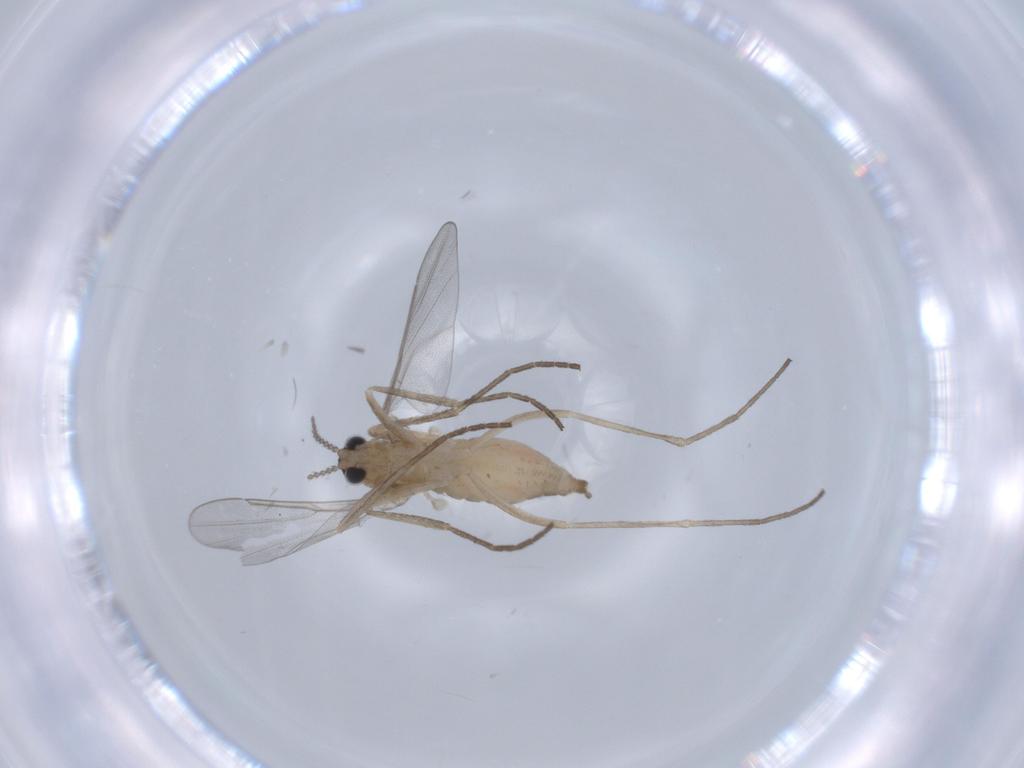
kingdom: Animalia
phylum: Arthropoda
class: Insecta
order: Diptera
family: Cecidomyiidae
